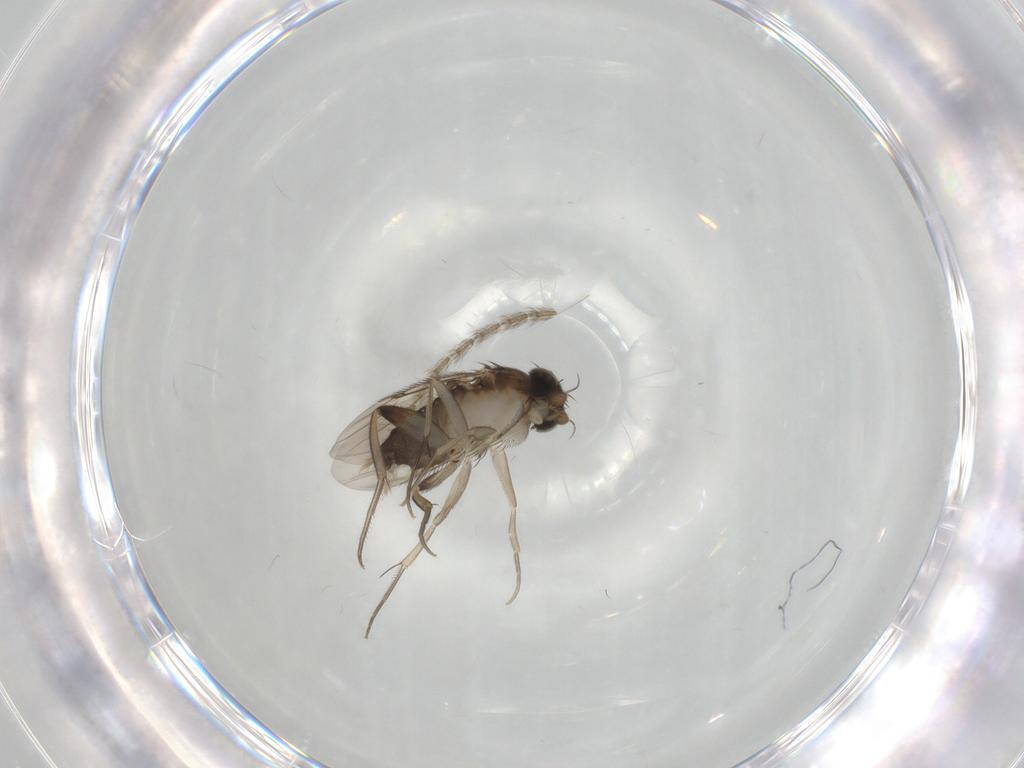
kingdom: Animalia
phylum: Arthropoda
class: Insecta
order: Diptera
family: Phoridae
